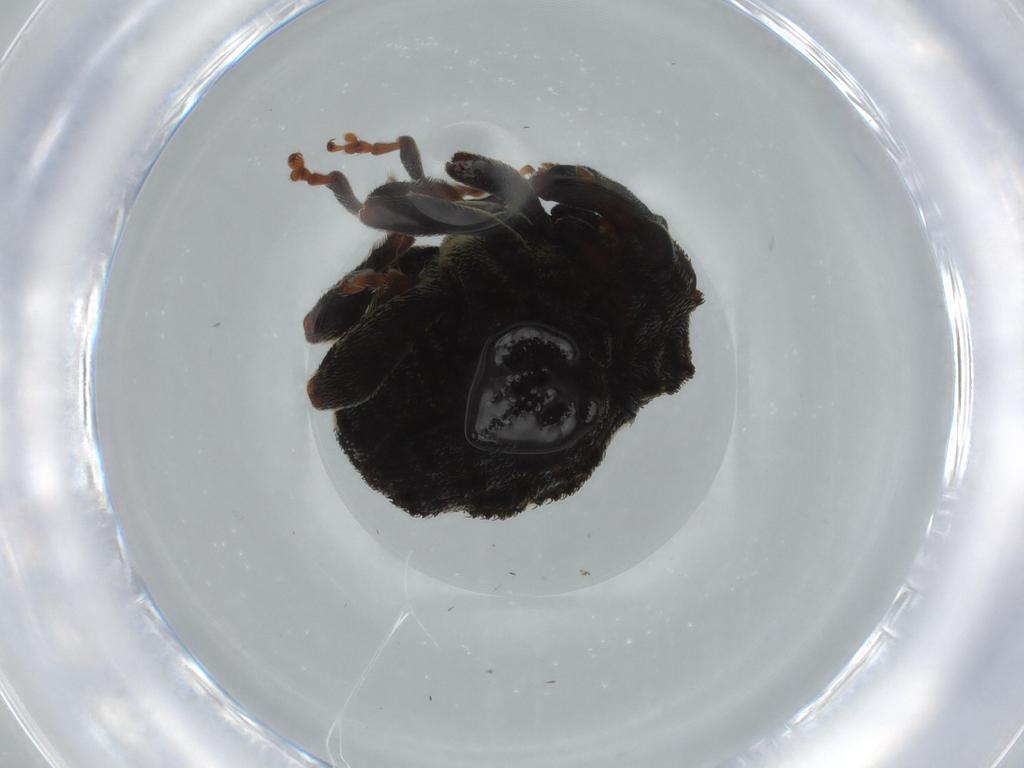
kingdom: Animalia
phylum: Arthropoda
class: Insecta
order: Coleoptera
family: Curculionidae
